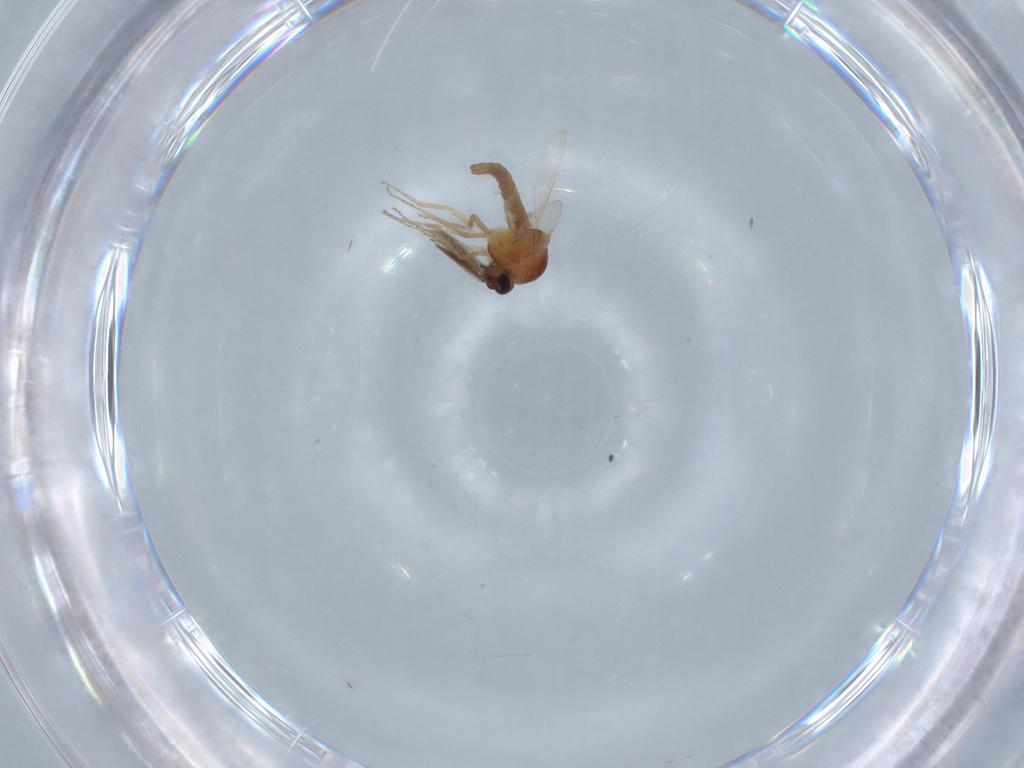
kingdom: Animalia
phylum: Arthropoda
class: Insecta
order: Diptera
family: Ceratopogonidae
